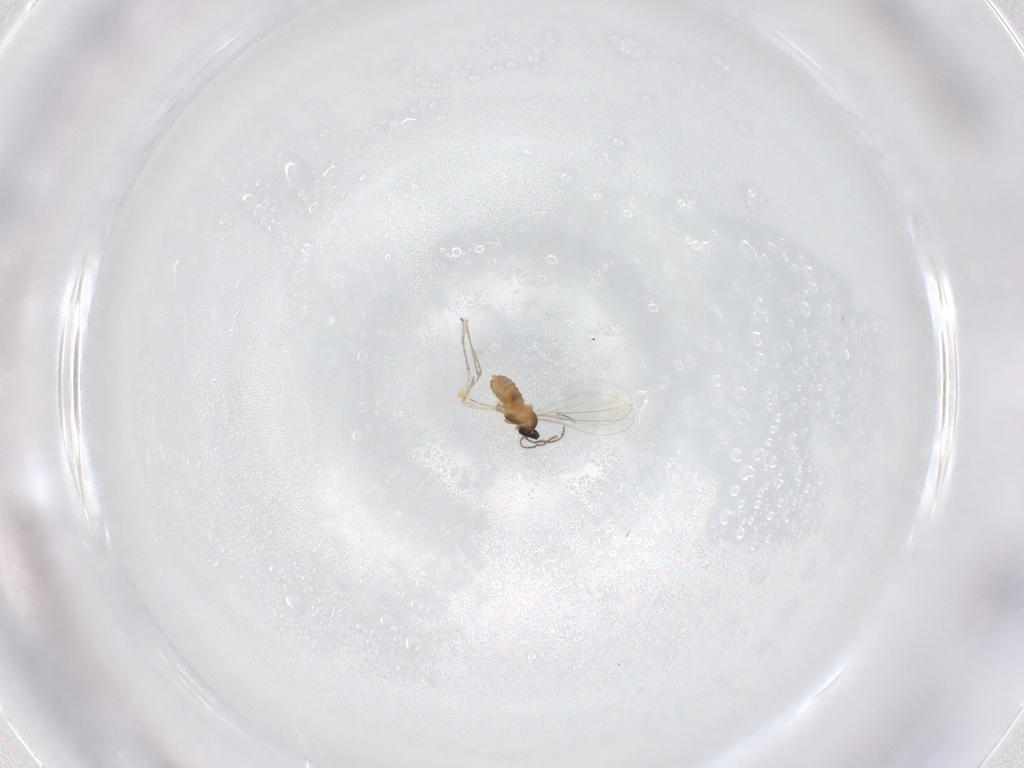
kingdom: Animalia
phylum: Arthropoda
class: Insecta
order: Diptera
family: Cecidomyiidae
